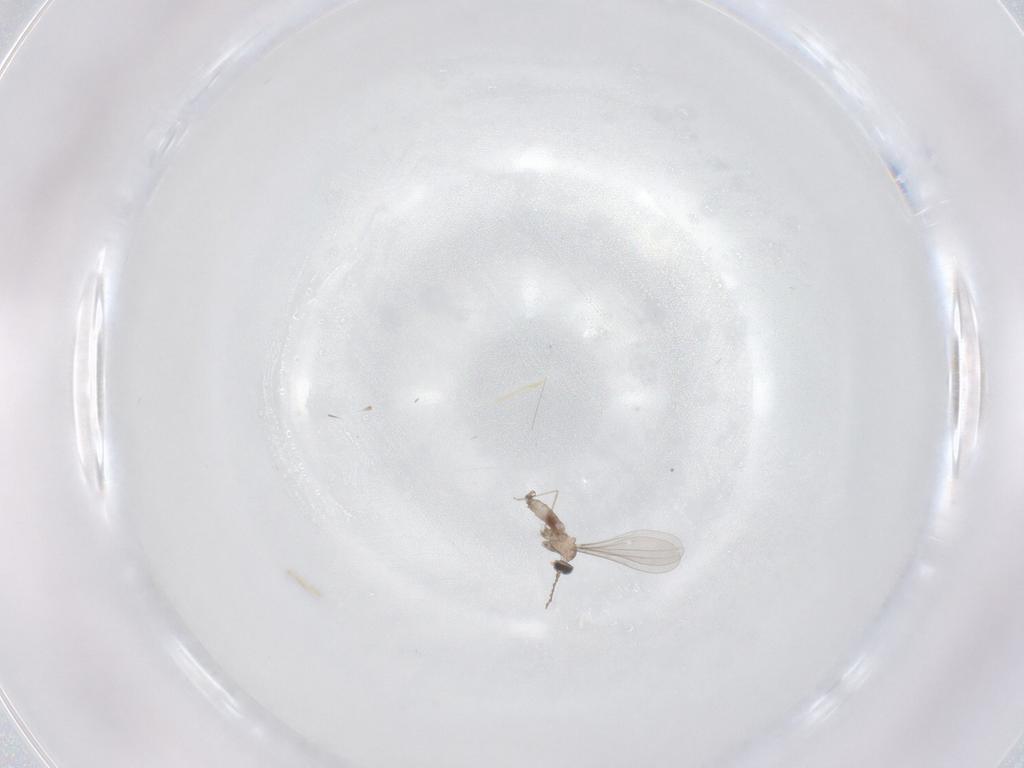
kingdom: Animalia
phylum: Arthropoda
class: Insecta
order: Diptera
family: Cecidomyiidae
